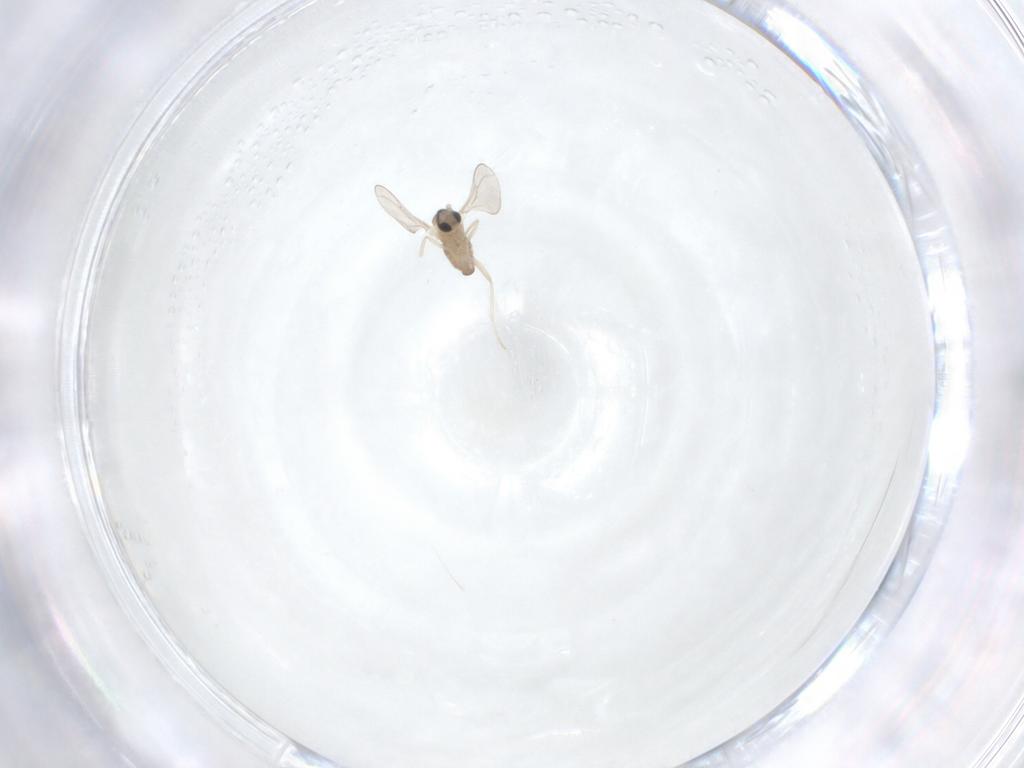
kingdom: Animalia
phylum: Arthropoda
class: Insecta
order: Diptera
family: Cecidomyiidae
